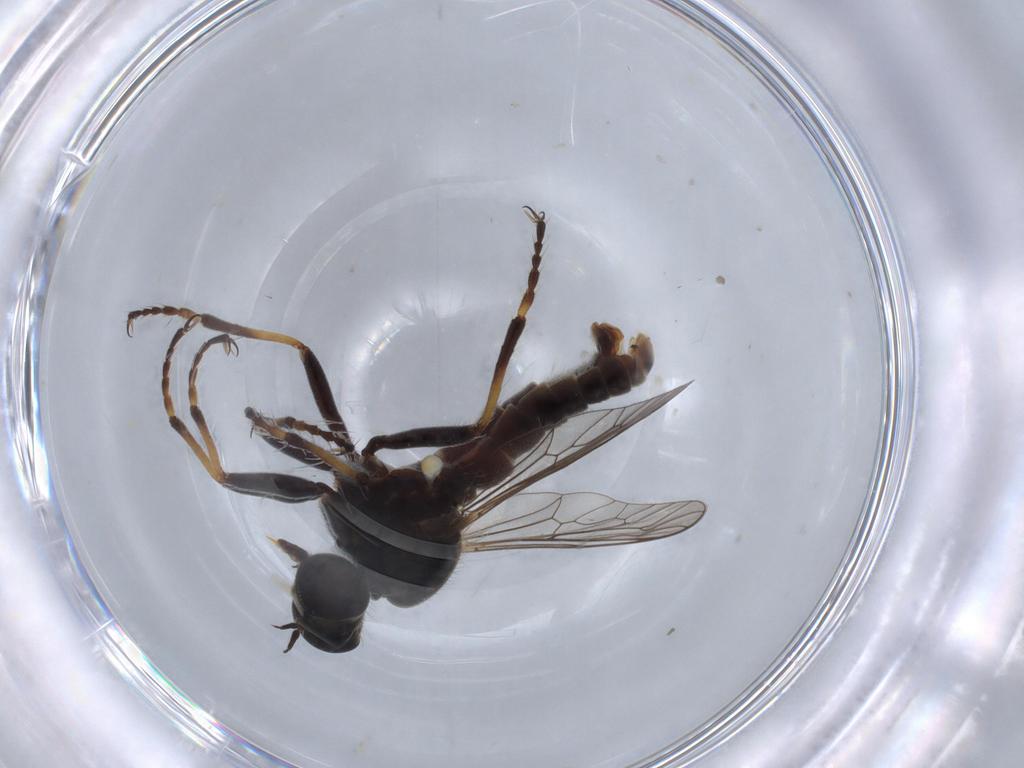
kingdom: Animalia
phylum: Arthropoda
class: Insecta
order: Diptera
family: Asilidae
